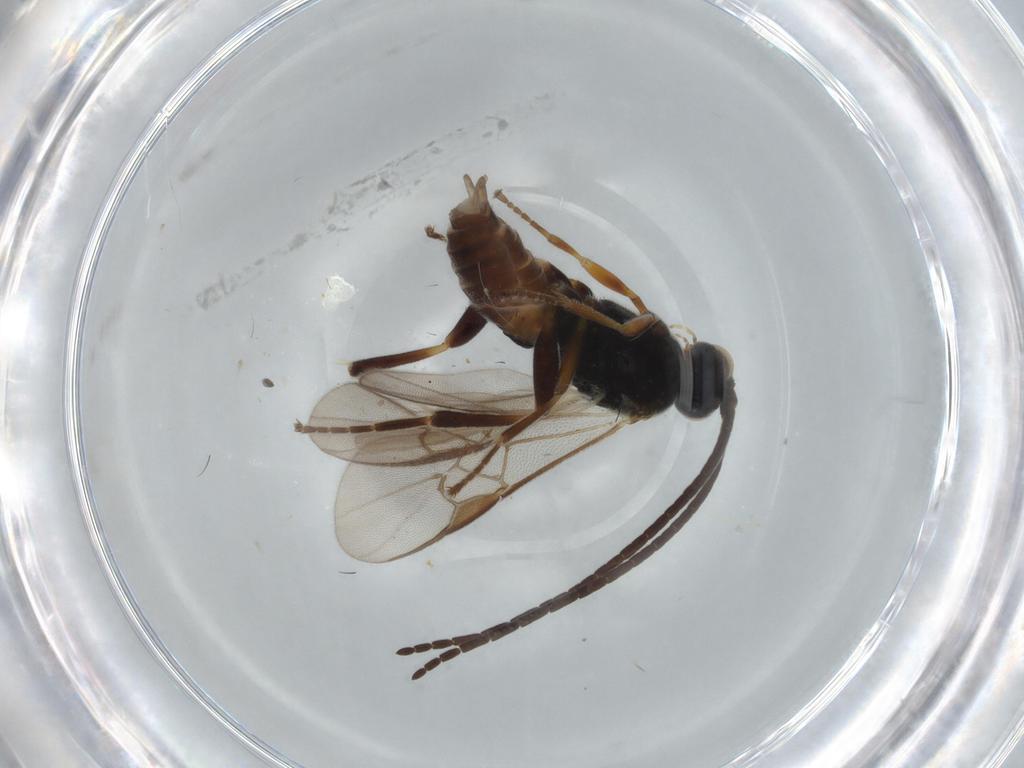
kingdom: Animalia
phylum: Arthropoda
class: Insecta
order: Hymenoptera
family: Braconidae
